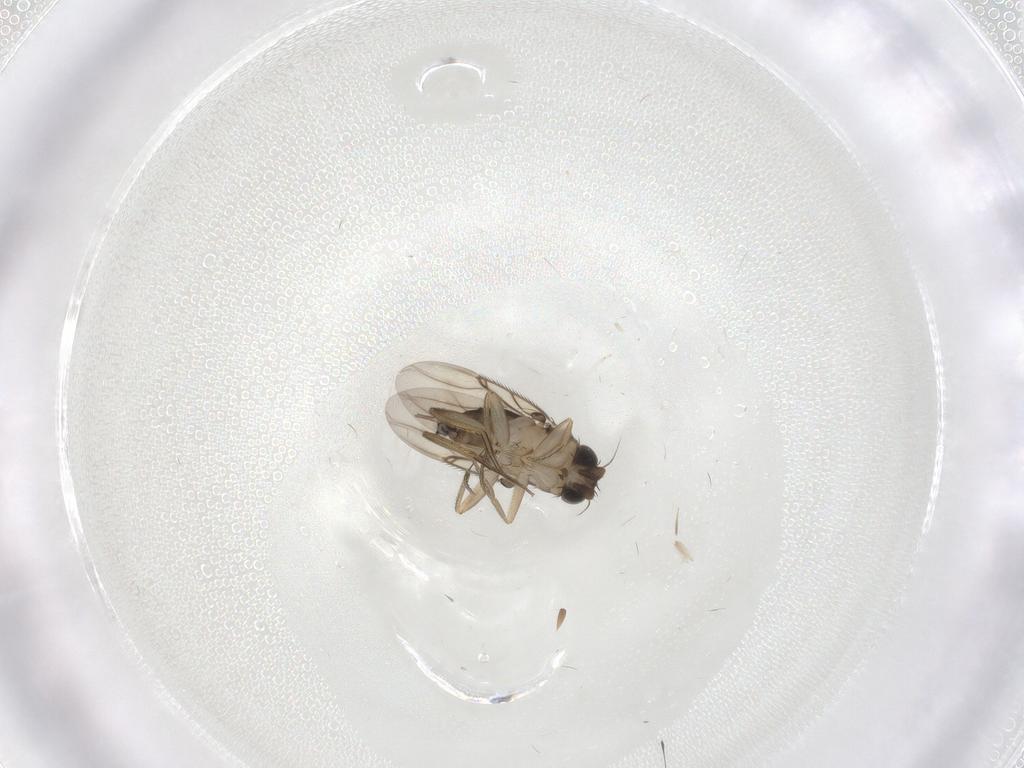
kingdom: Animalia
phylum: Arthropoda
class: Insecta
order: Diptera
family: Phoridae
